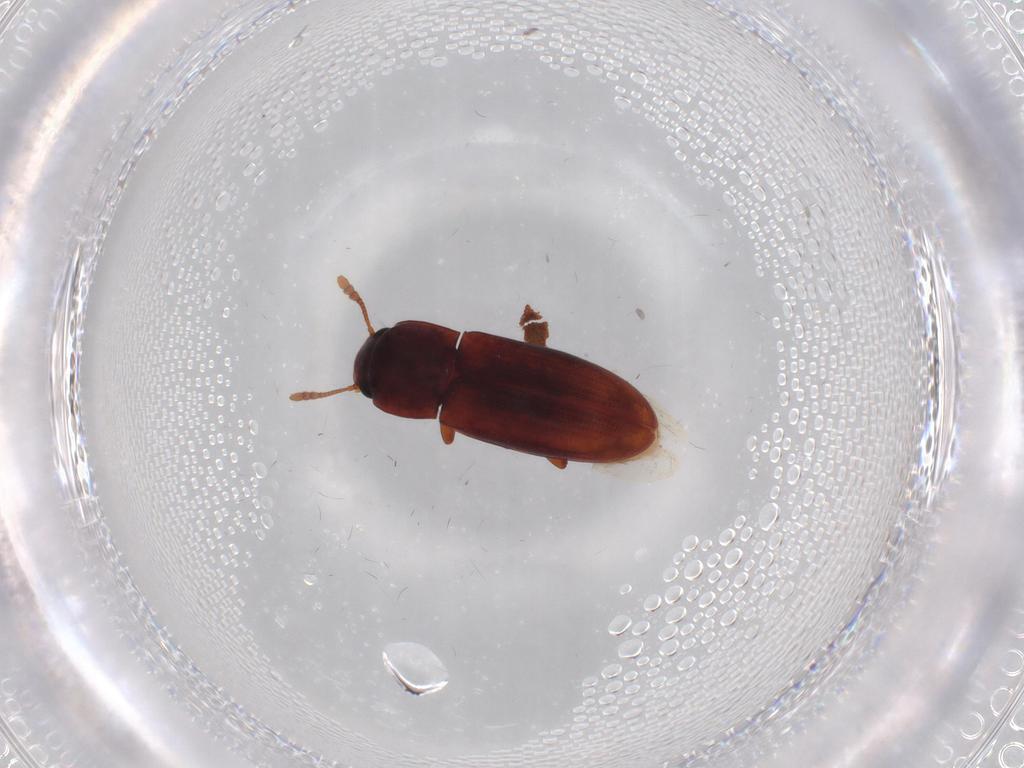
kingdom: Animalia
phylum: Arthropoda
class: Insecta
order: Coleoptera
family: Zopheridae
